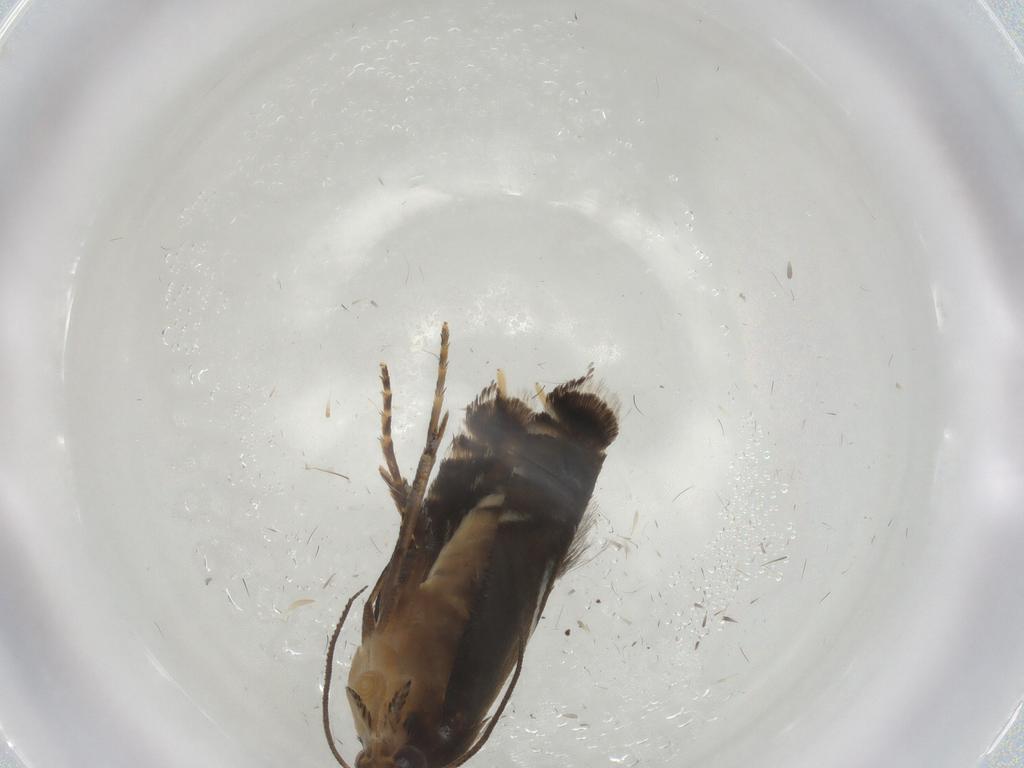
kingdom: Animalia
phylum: Arthropoda
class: Insecta
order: Lepidoptera
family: Glyphipterigidae
